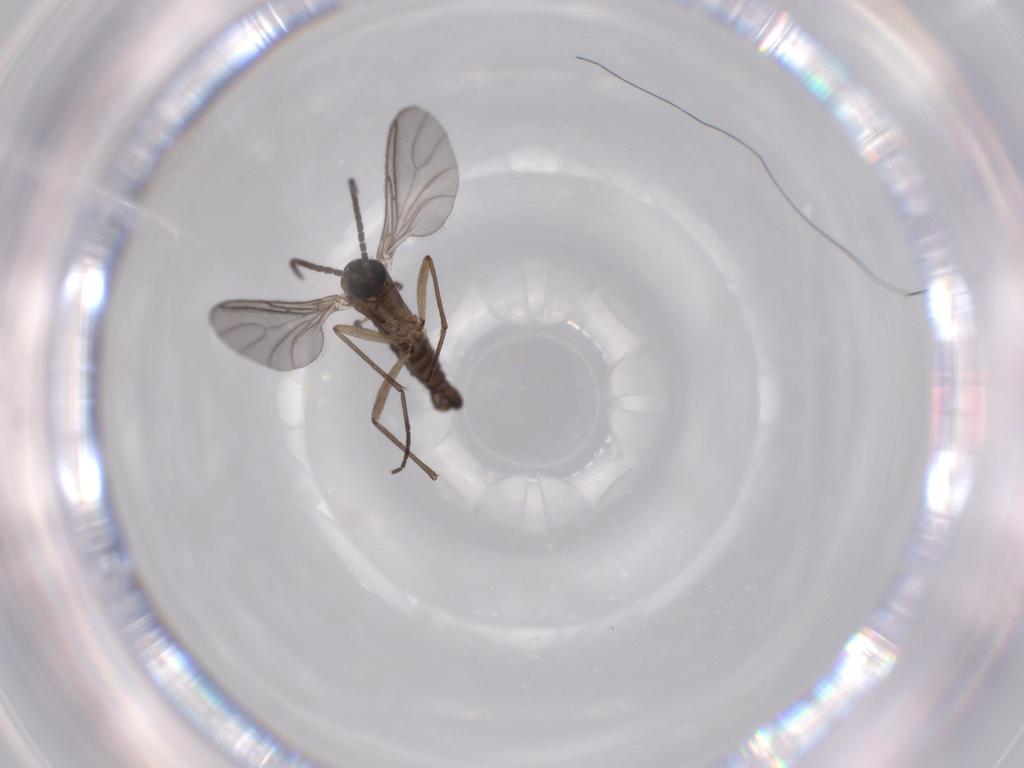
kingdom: Animalia
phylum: Arthropoda
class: Insecta
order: Diptera
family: Sciaridae
